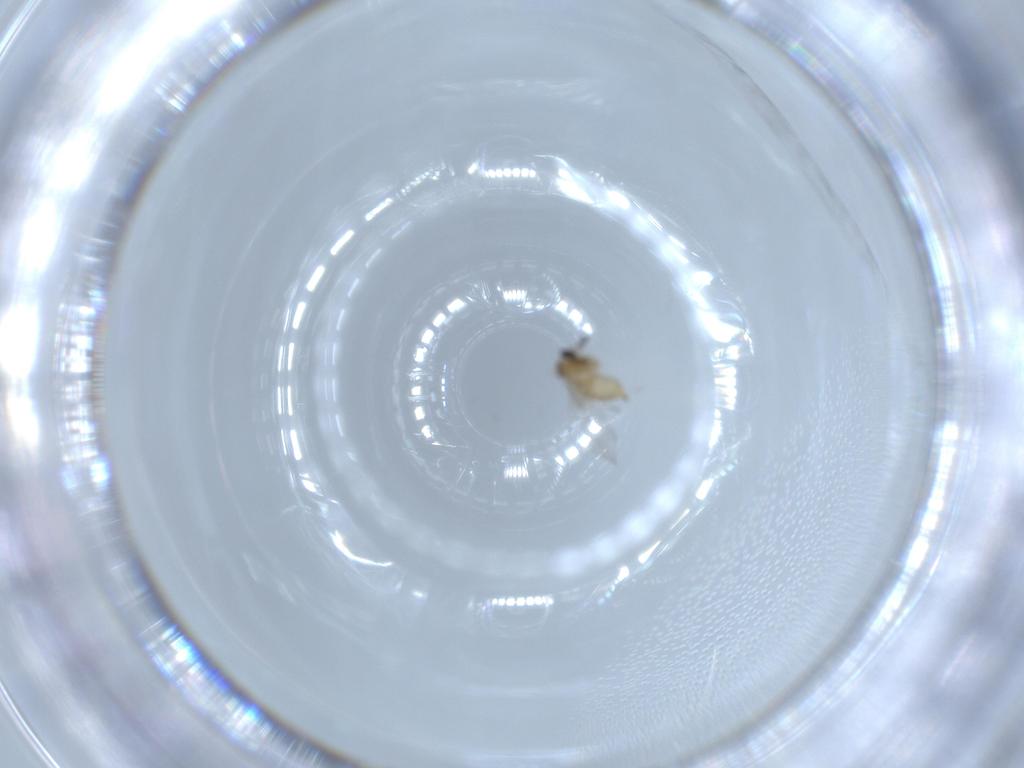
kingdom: Animalia
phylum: Arthropoda
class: Insecta
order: Diptera
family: Cecidomyiidae
